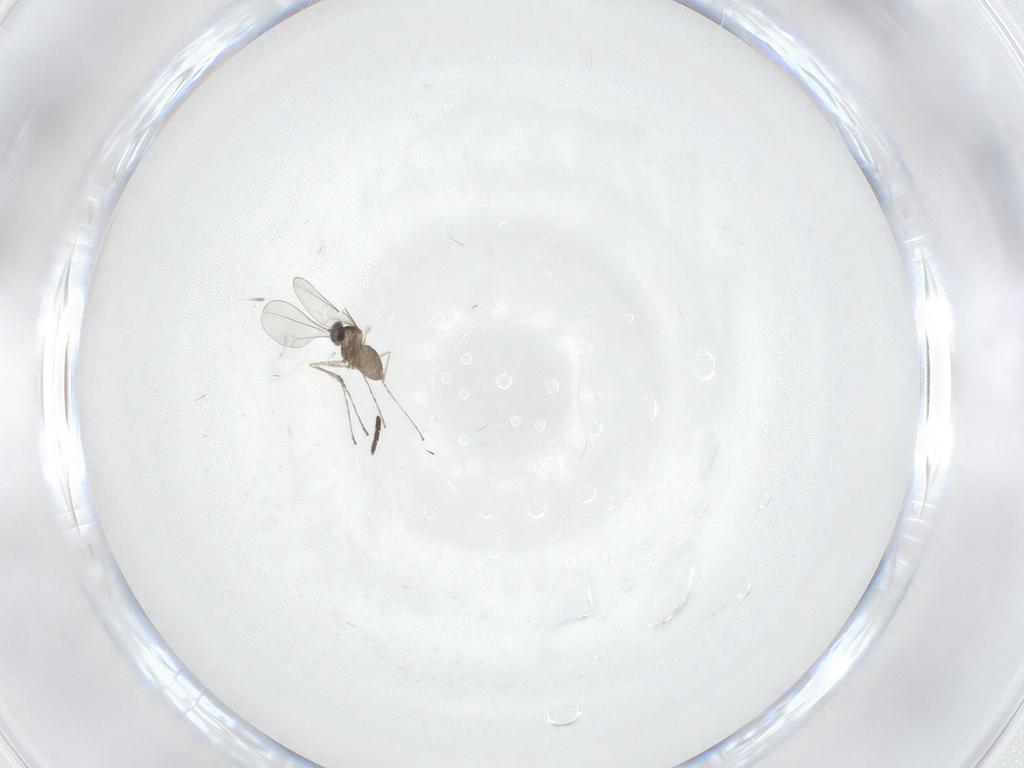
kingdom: Animalia
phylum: Arthropoda
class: Insecta
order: Diptera
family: Cecidomyiidae
